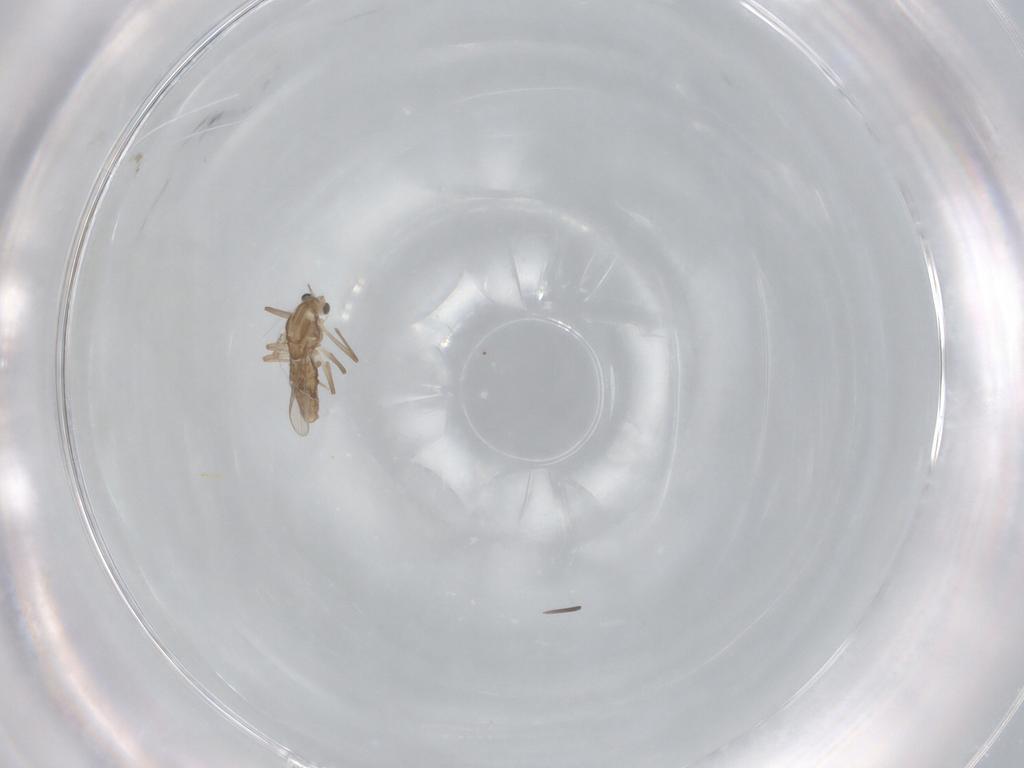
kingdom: Animalia
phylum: Arthropoda
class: Insecta
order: Diptera
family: Chironomidae
